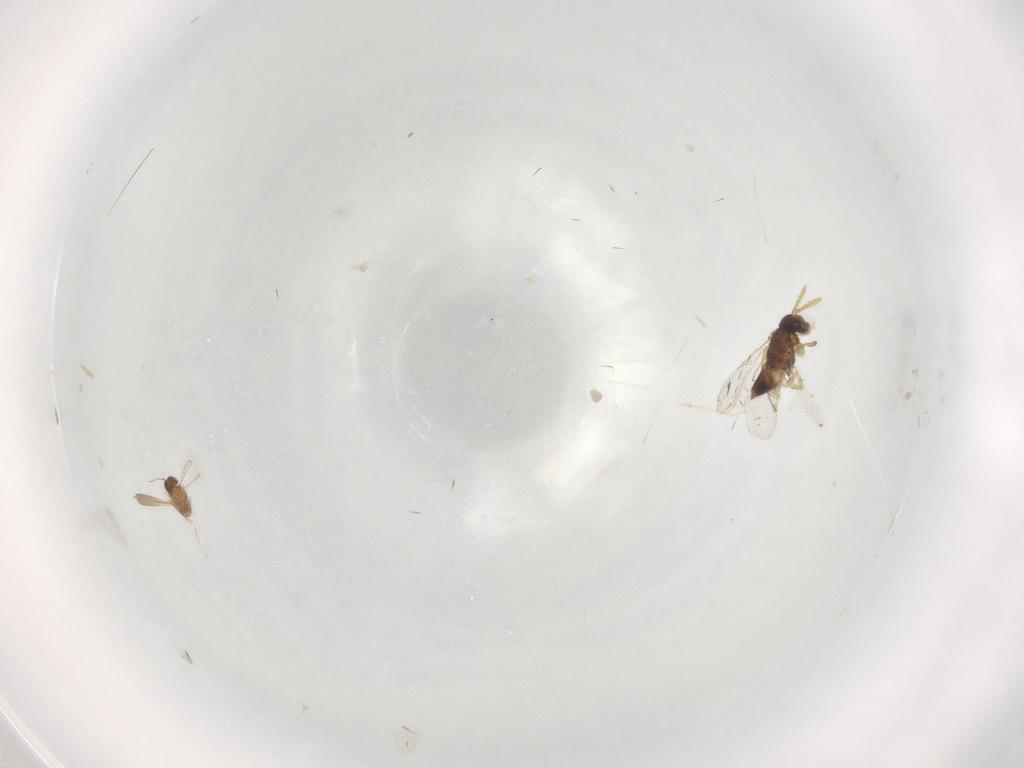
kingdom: Animalia
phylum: Arthropoda
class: Insecta
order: Hymenoptera
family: Aphelinidae
